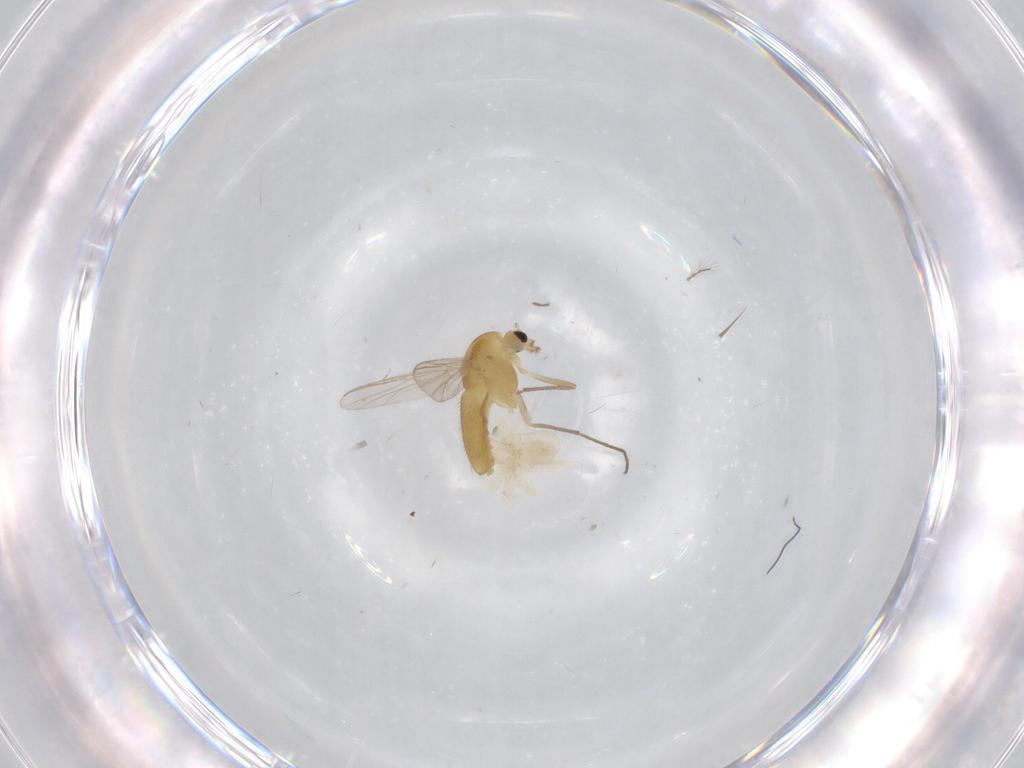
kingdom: Animalia
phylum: Arthropoda
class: Insecta
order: Diptera
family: Chironomidae
